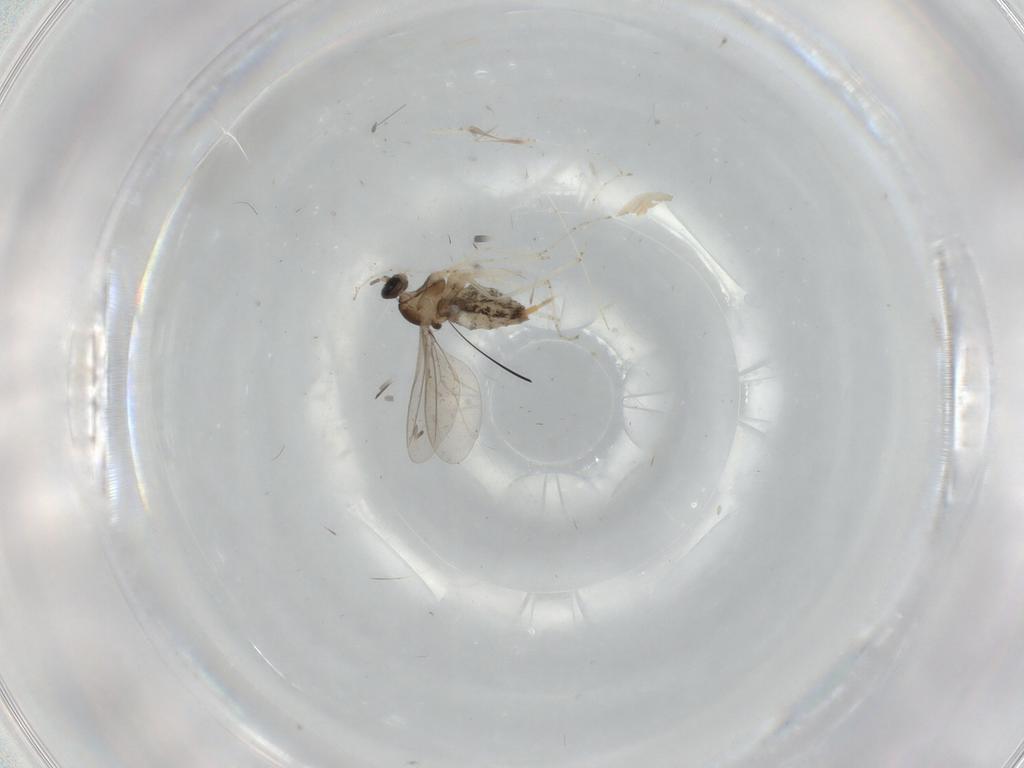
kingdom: Animalia
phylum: Arthropoda
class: Insecta
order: Diptera
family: Cecidomyiidae
